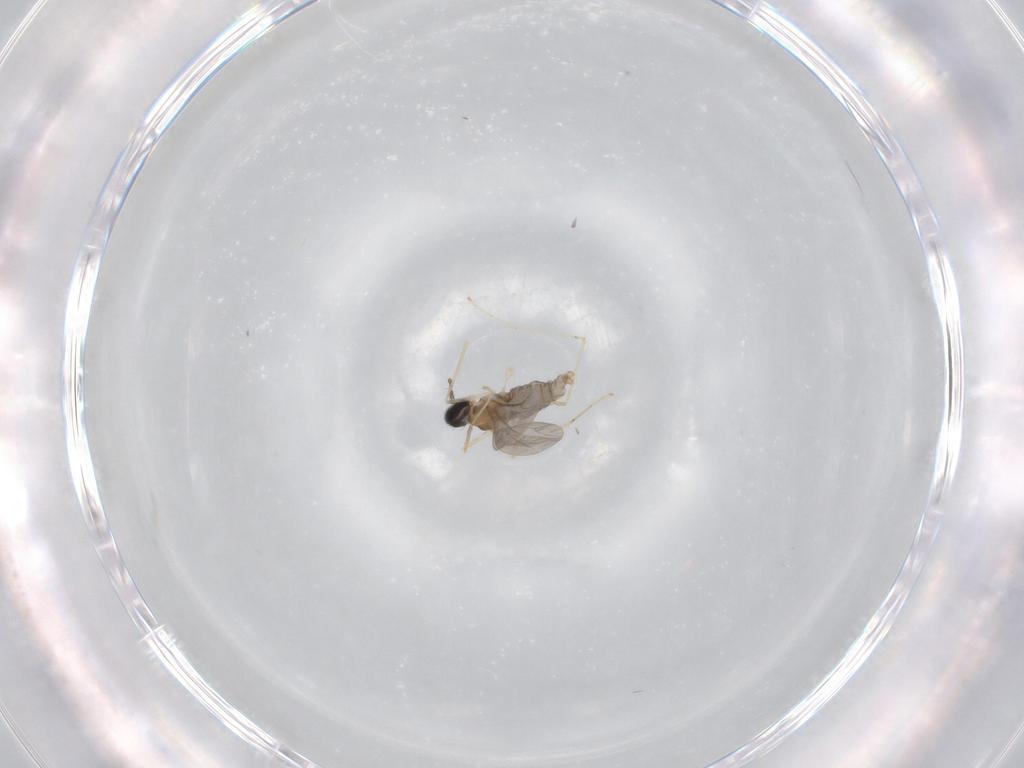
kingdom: Animalia
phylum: Arthropoda
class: Insecta
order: Diptera
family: Cecidomyiidae
